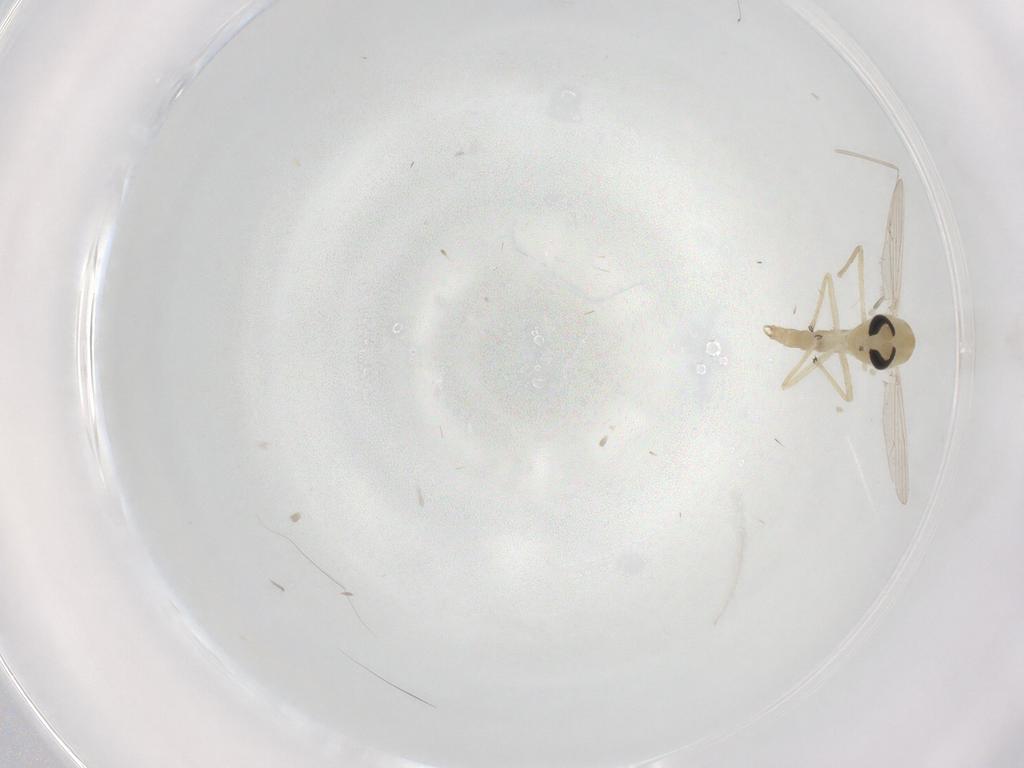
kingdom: Animalia
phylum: Arthropoda
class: Insecta
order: Diptera
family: Chironomidae
